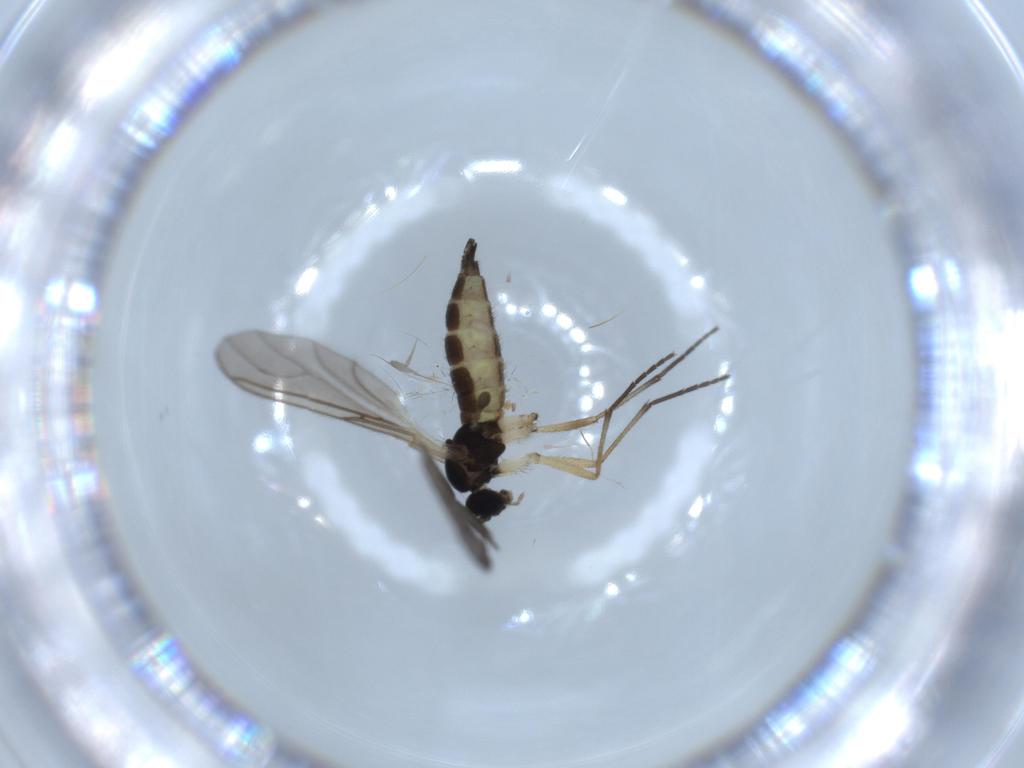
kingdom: Animalia
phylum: Arthropoda
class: Insecta
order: Diptera
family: Sciaridae
